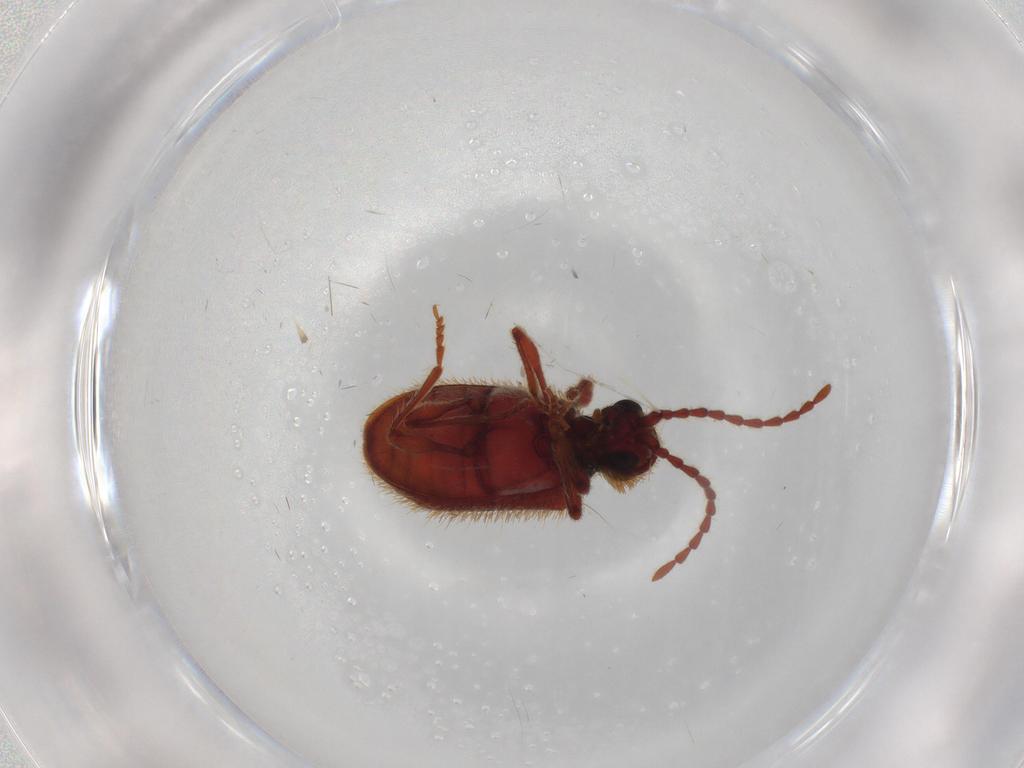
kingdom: Animalia
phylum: Arthropoda
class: Insecta
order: Coleoptera
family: Ptinidae
